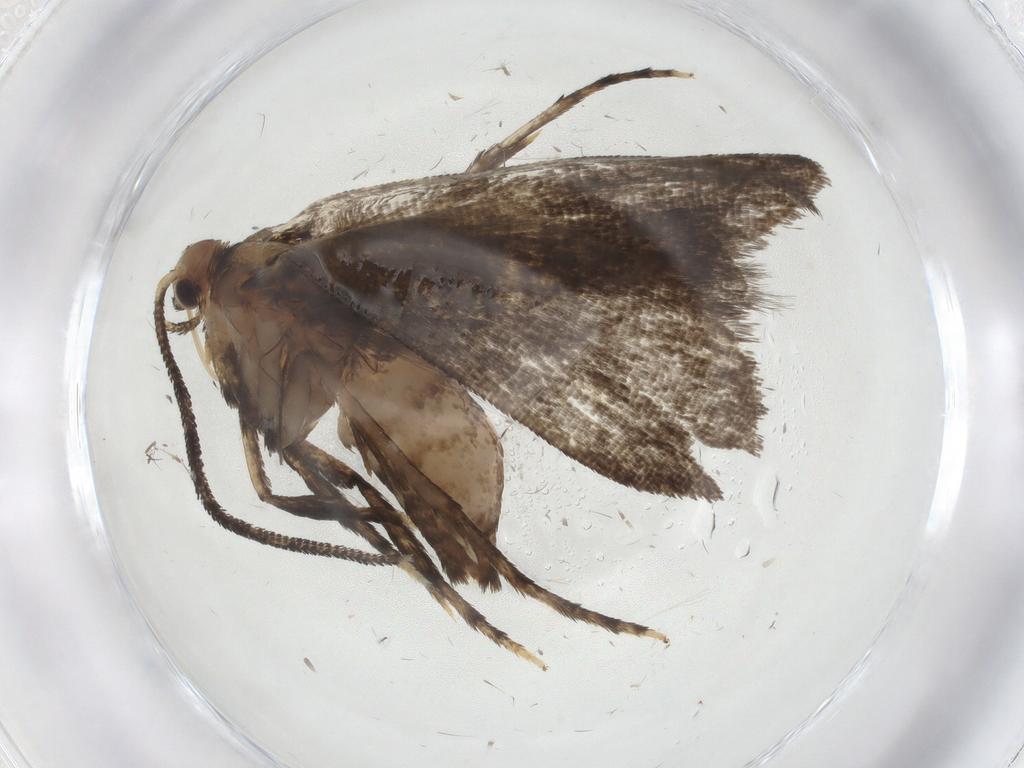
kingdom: Animalia
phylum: Arthropoda
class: Insecta
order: Lepidoptera
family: Choreutidae
